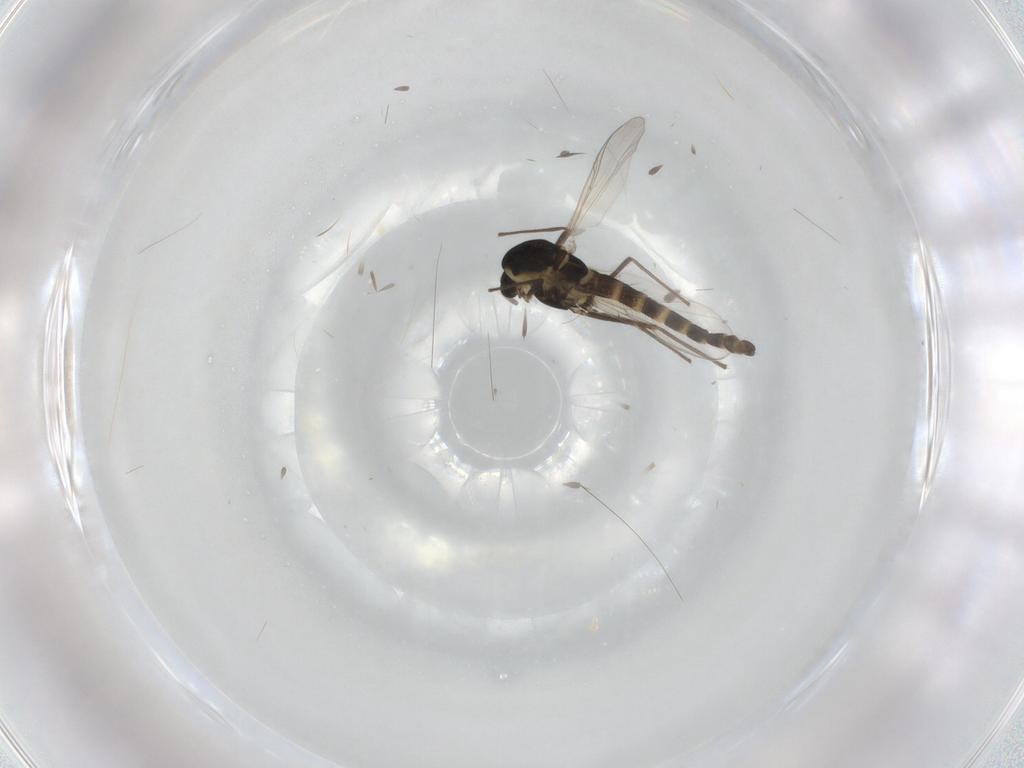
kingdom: Animalia
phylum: Arthropoda
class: Insecta
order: Diptera
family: Chironomidae
